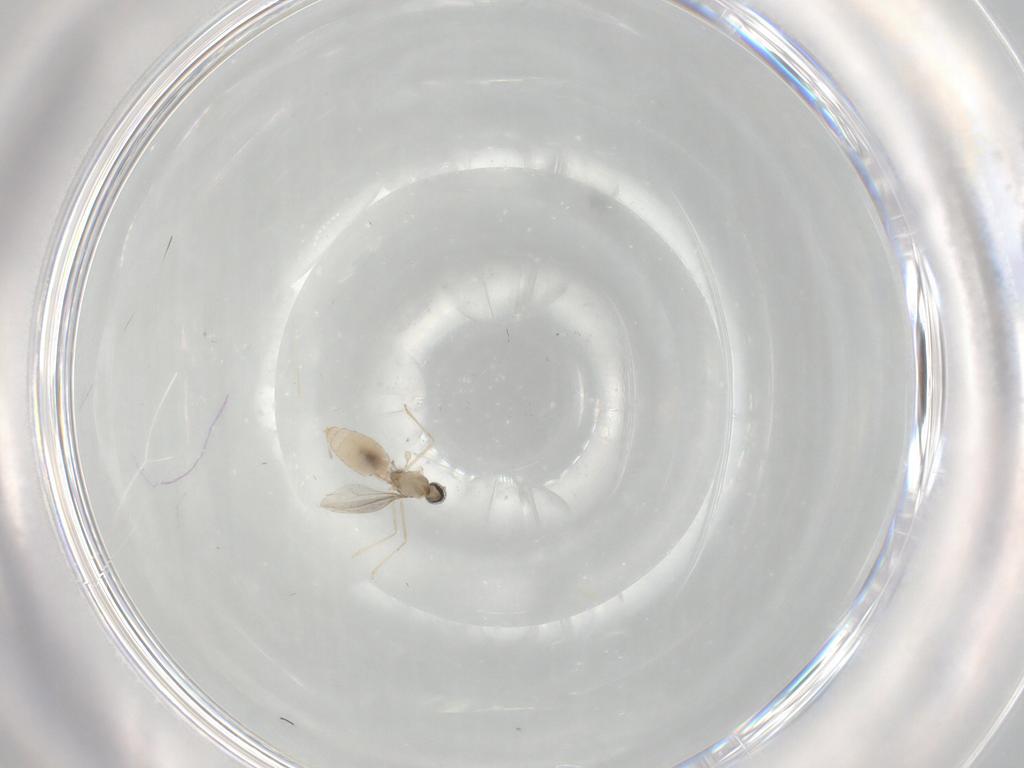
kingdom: Animalia
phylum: Arthropoda
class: Insecta
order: Diptera
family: Cecidomyiidae
